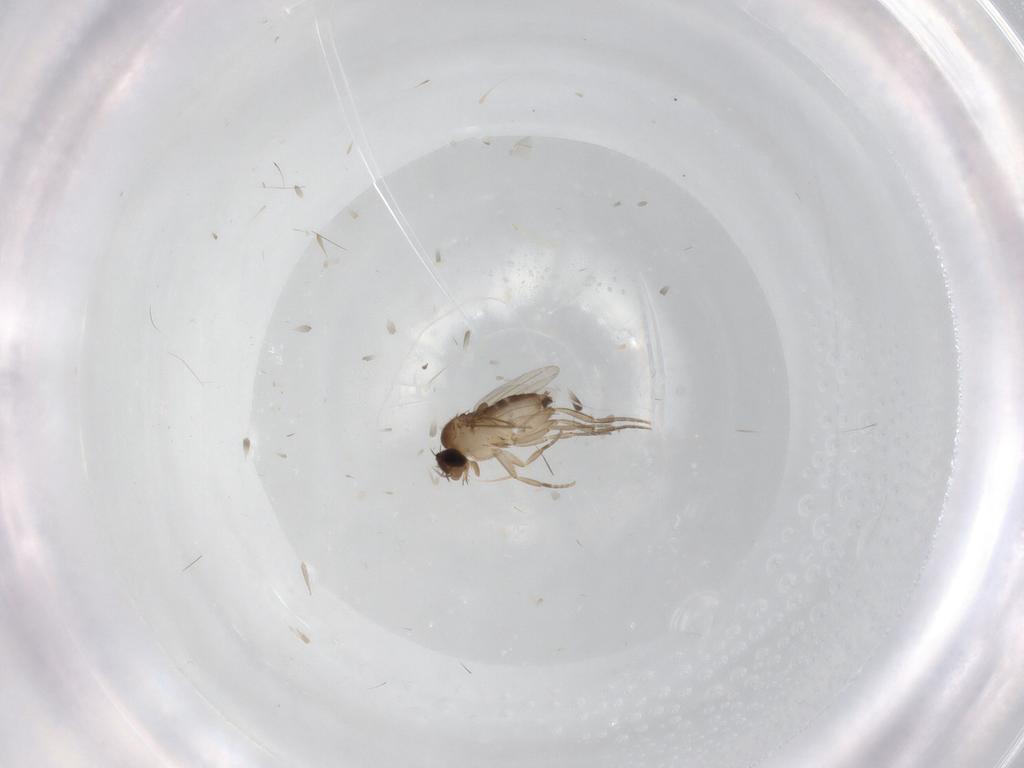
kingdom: Animalia
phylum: Arthropoda
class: Insecta
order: Diptera
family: Phoridae
